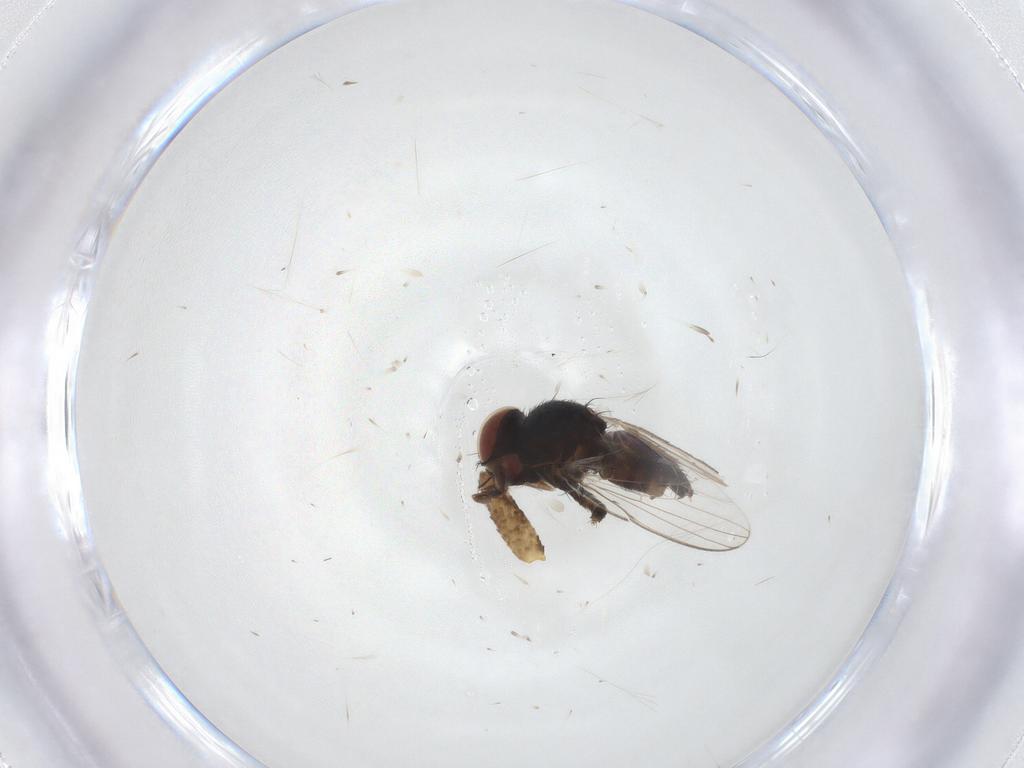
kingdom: Animalia
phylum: Arthropoda
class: Insecta
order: Diptera
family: Milichiidae
